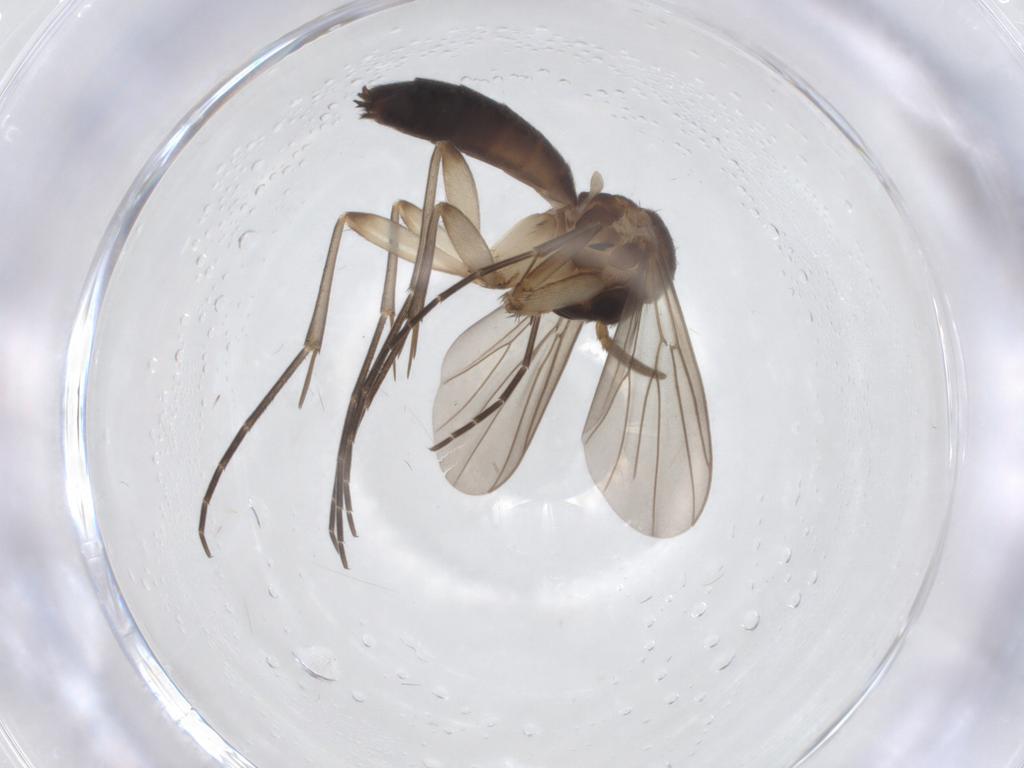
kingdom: Animalia
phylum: Arthropoda
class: Insecta
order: Diptera
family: Mycetophilidae
